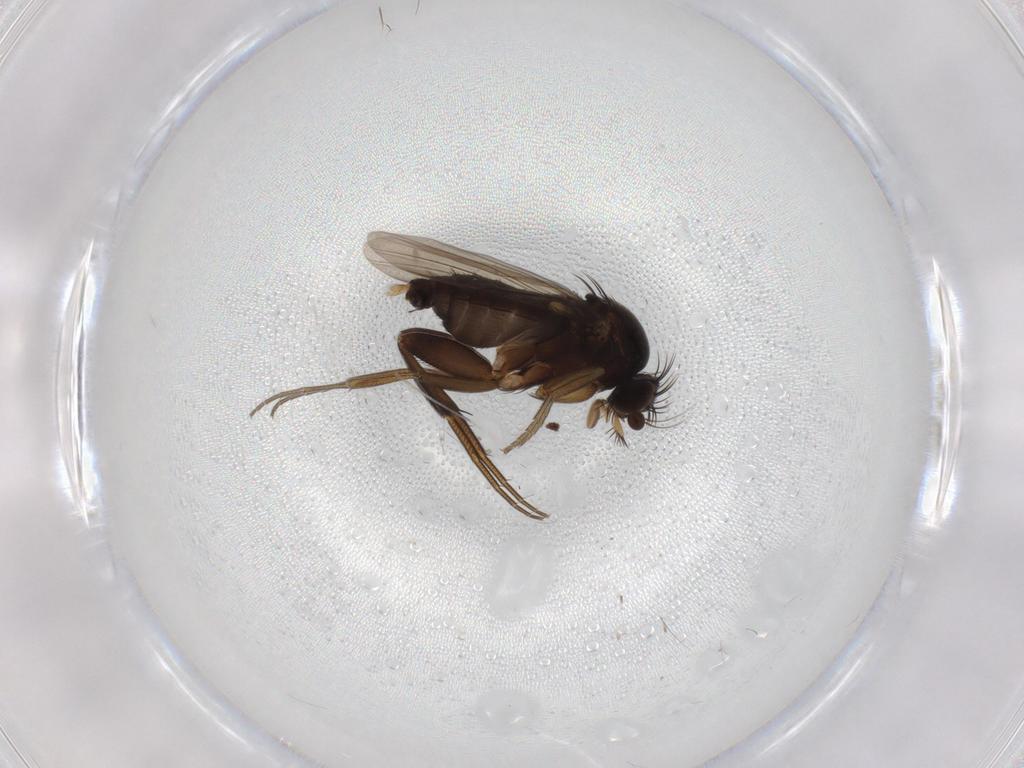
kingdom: Animalia
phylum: Arthropoda
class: Insecta
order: Diptera
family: Phoridae
